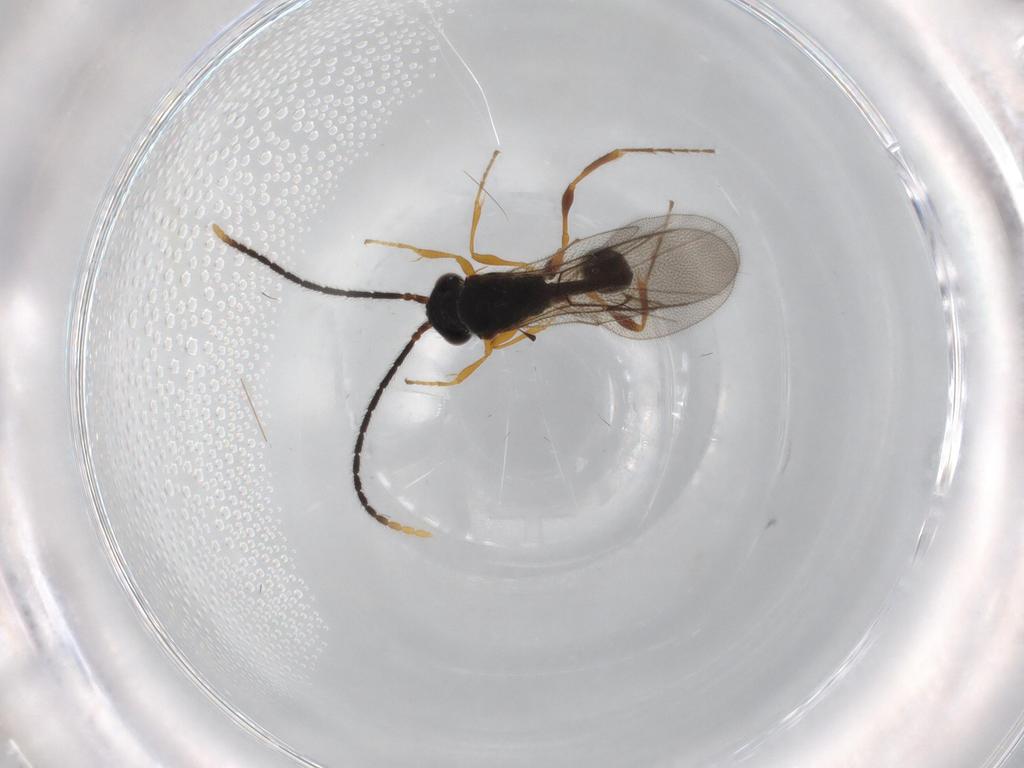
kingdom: Animalia
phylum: Arthropoda
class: Insecta
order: Hymenoptera
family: Diapriidae
